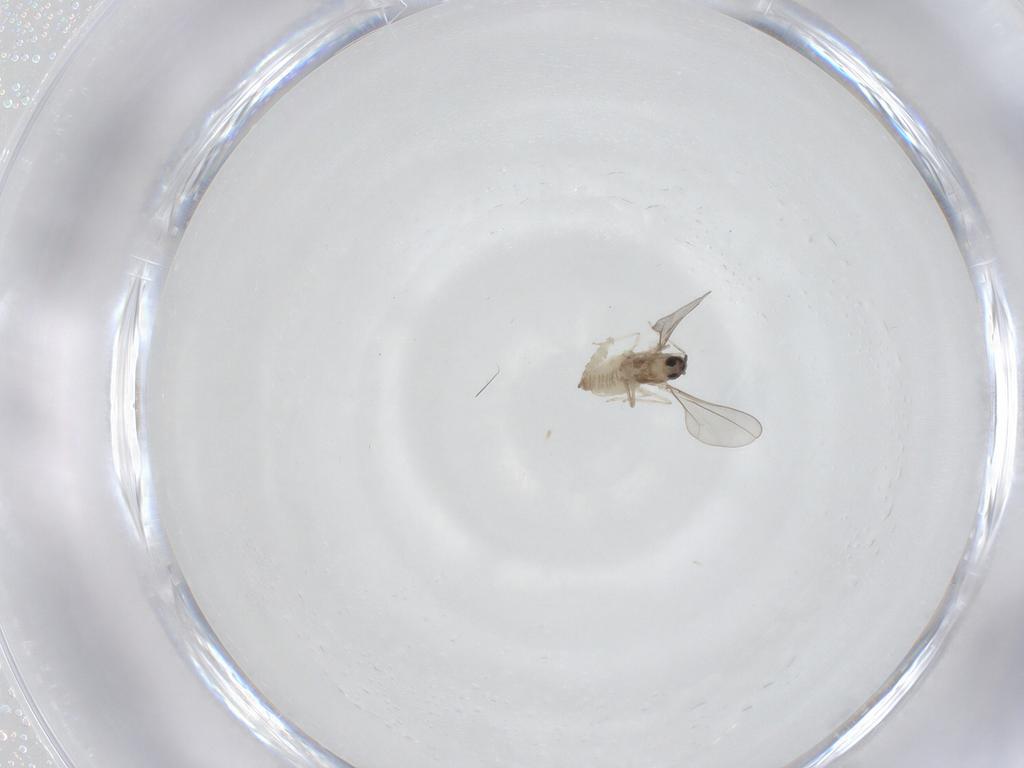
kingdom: Animalia
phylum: Arthropoda
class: Insecta
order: Diptera
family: Cecidomyiidae
